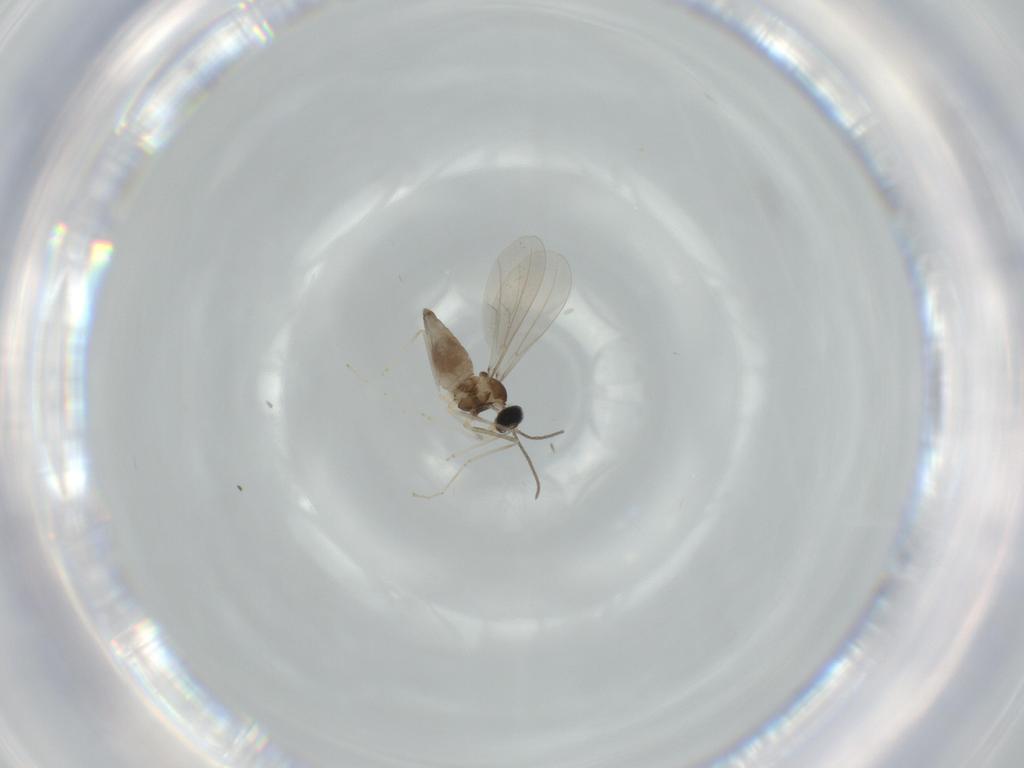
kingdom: Animalia
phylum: Arthropoda
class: Insecta
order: Diptera
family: Cecidomyiidae
